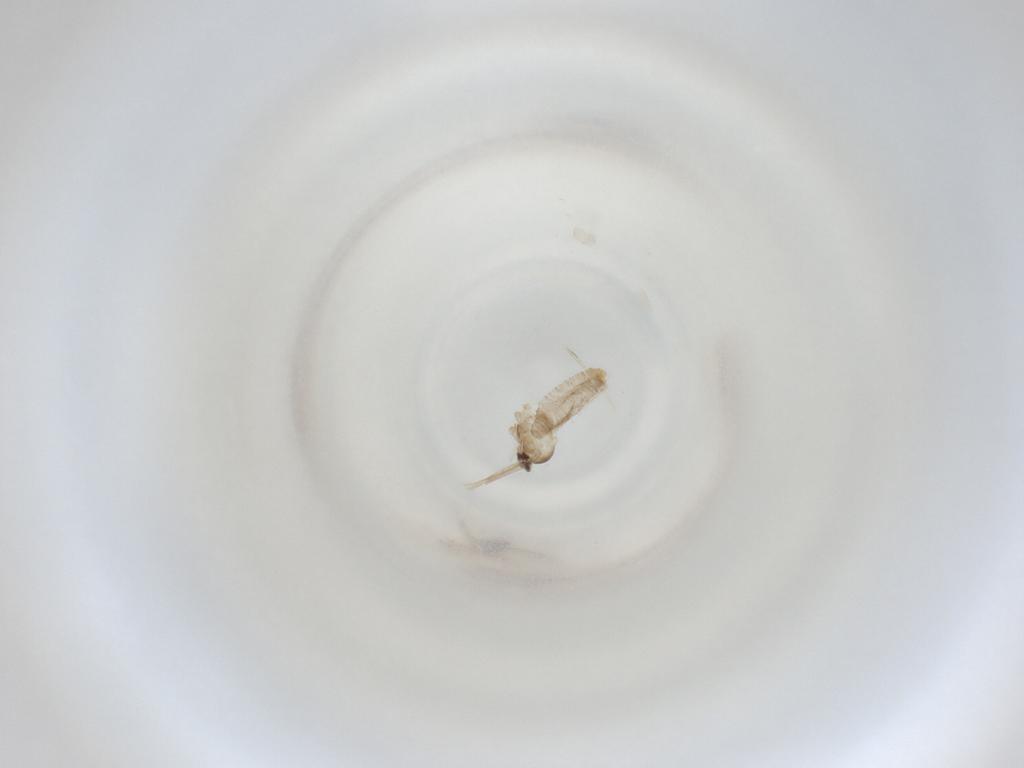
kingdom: Animalia
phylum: Arthropoda
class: Insecta
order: Diptera
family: Cecidomyiidae
